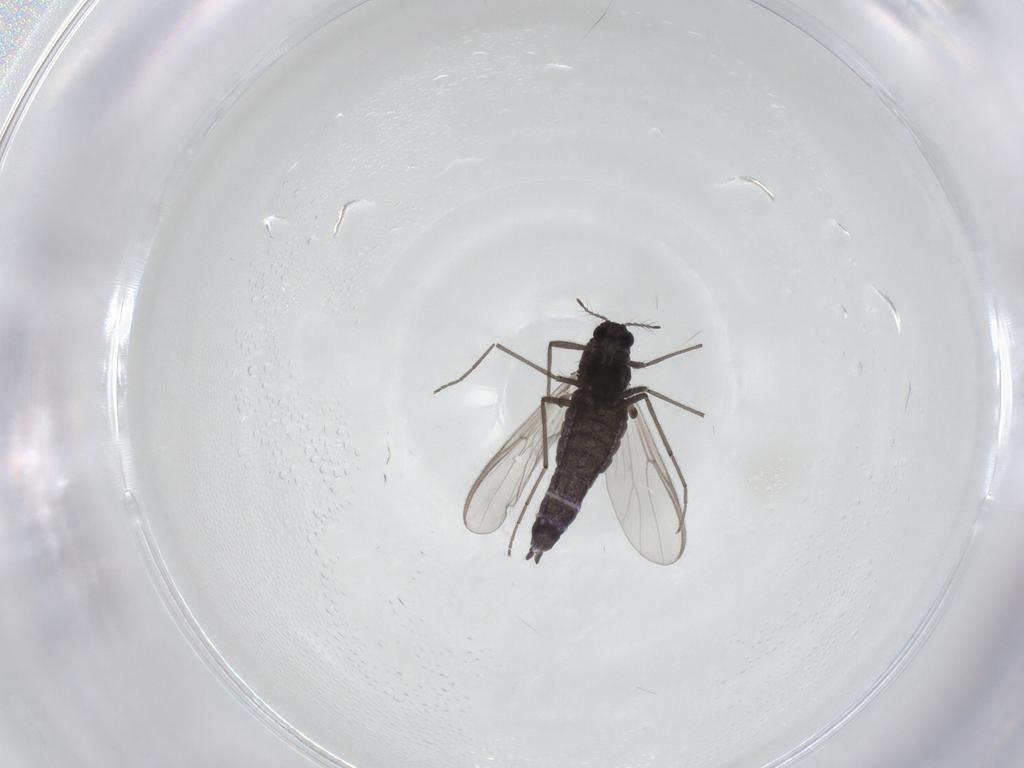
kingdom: Animalia
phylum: Arthropoda
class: Insecta
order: Diptera
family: Chironomidae
